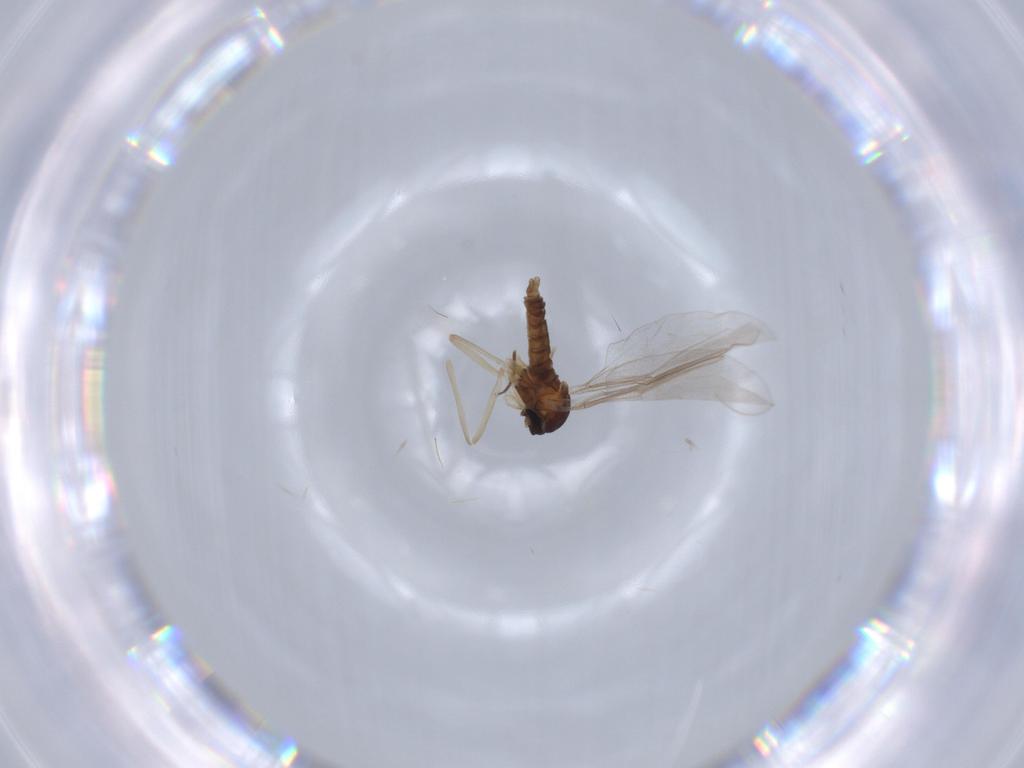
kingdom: Animalia
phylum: Arthropoda
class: Insecta
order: Diptera
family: Cecidomyiidae
